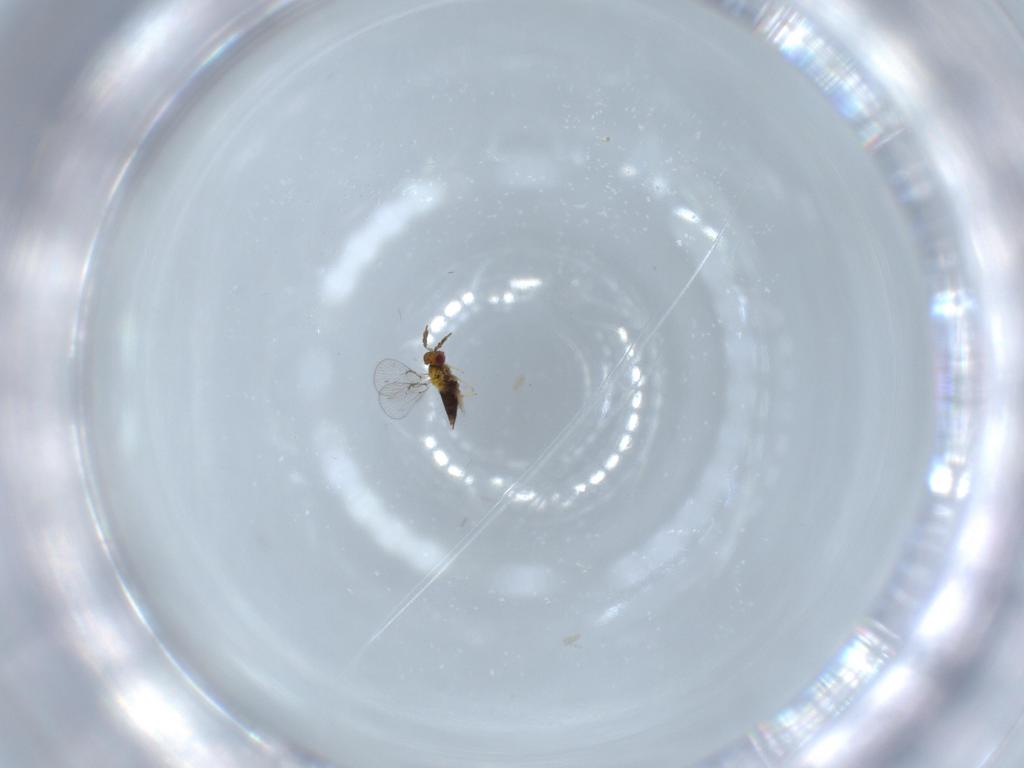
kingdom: Animalia
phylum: Arthropoda
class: Insecta
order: Hymenoptera
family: Trichogrammatidae
